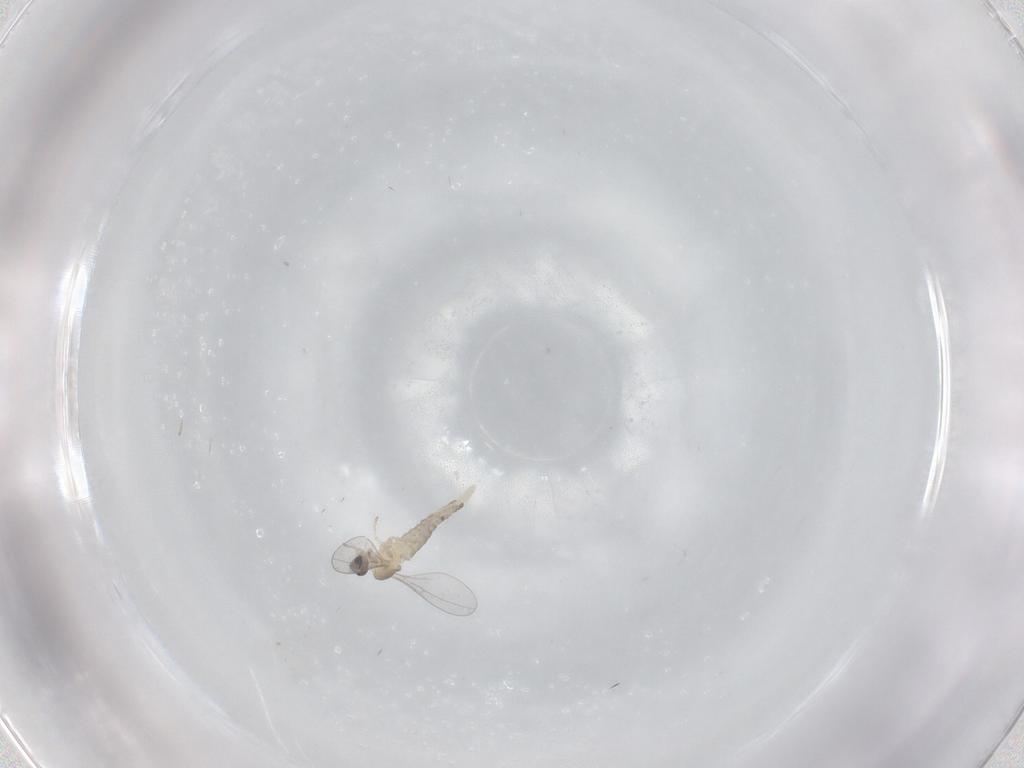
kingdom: Animalia
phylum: Arthropoda
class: Insecta
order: Diptera
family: Cecidomyiidae
